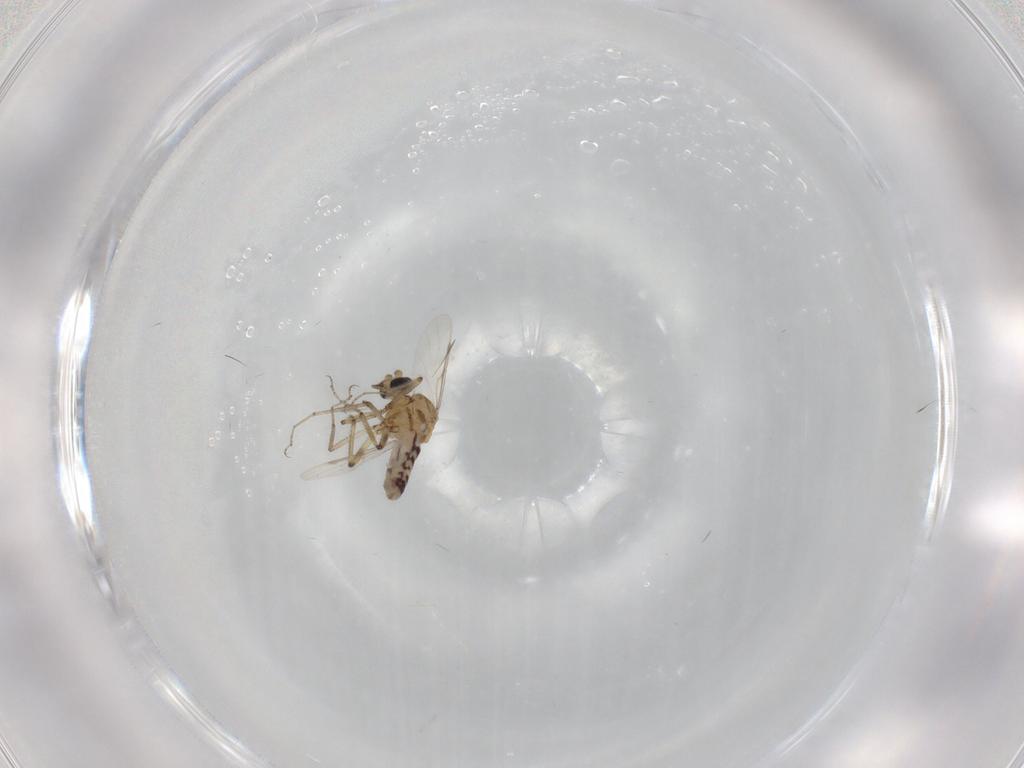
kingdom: Animalia
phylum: Arthropoda
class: Insecta
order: Diptera
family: Ceratopogonidae
